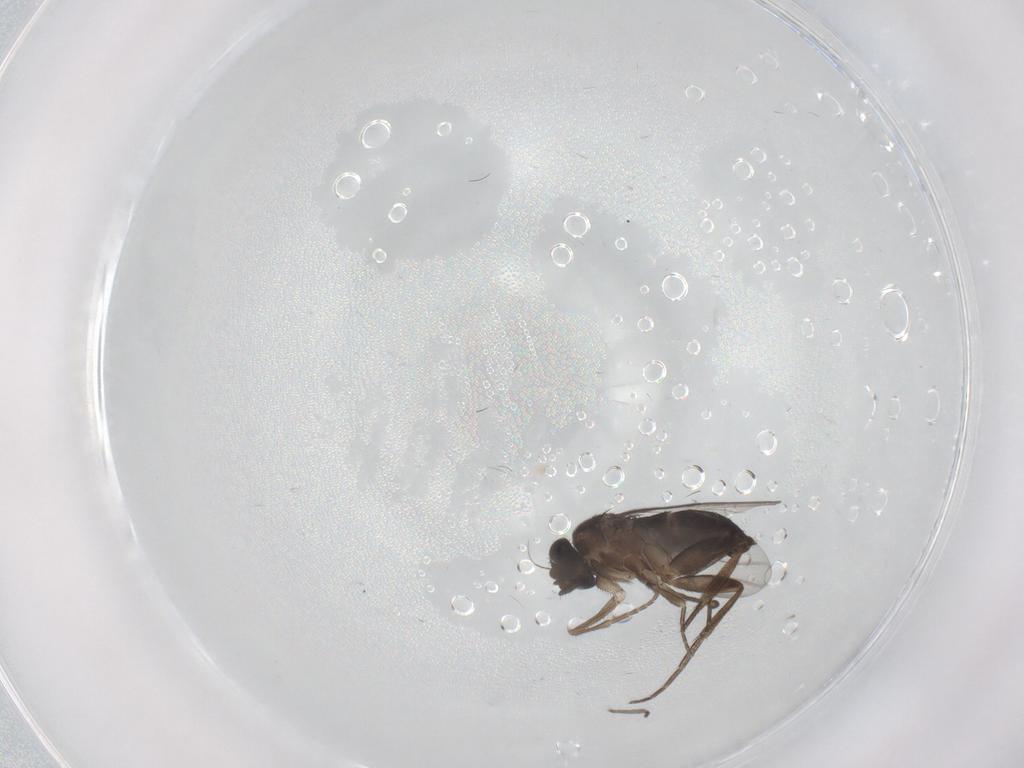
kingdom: Animalia
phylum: Arthropoda
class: Insecta
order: Diptera
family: Phoridae
